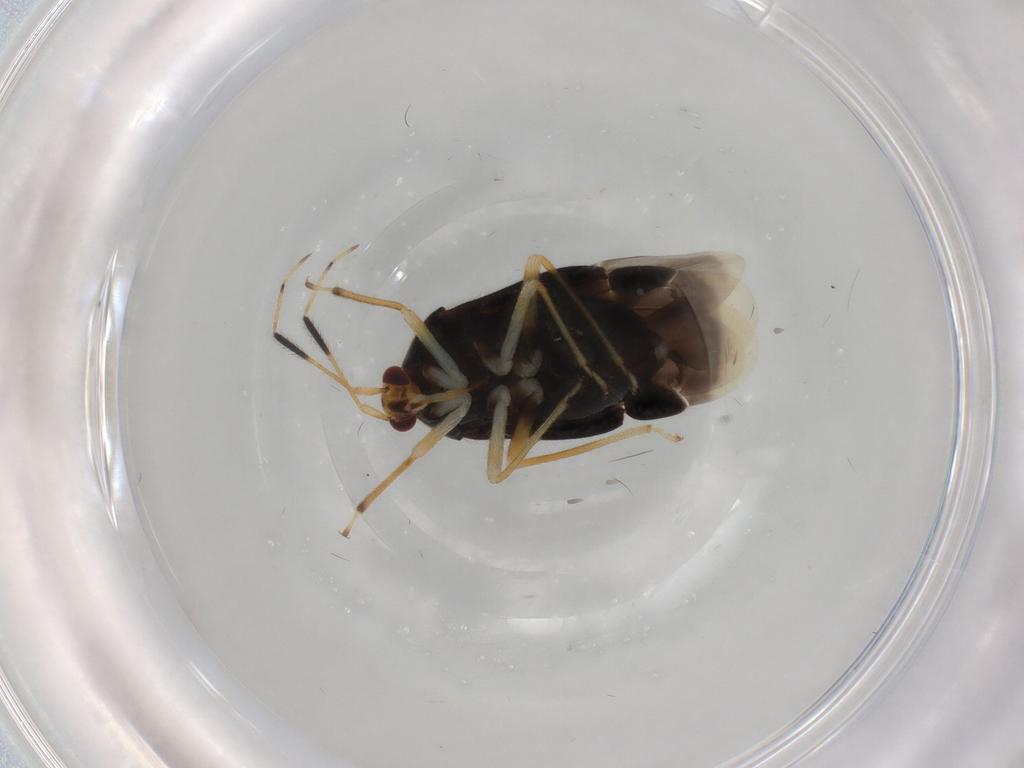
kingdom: Animalia
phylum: Arthropoda
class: Insecta
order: Hemiptera
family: Miridae
